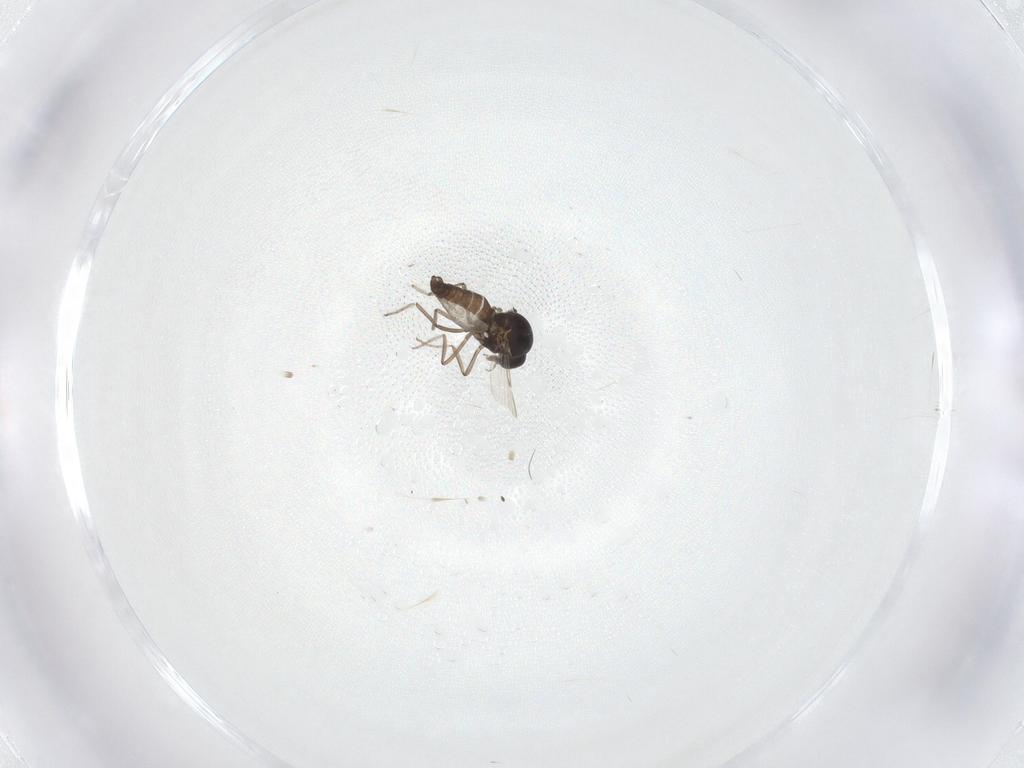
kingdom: Animalia
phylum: Arthropoda
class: Insecta
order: Diptera
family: Ceratopogonidae
